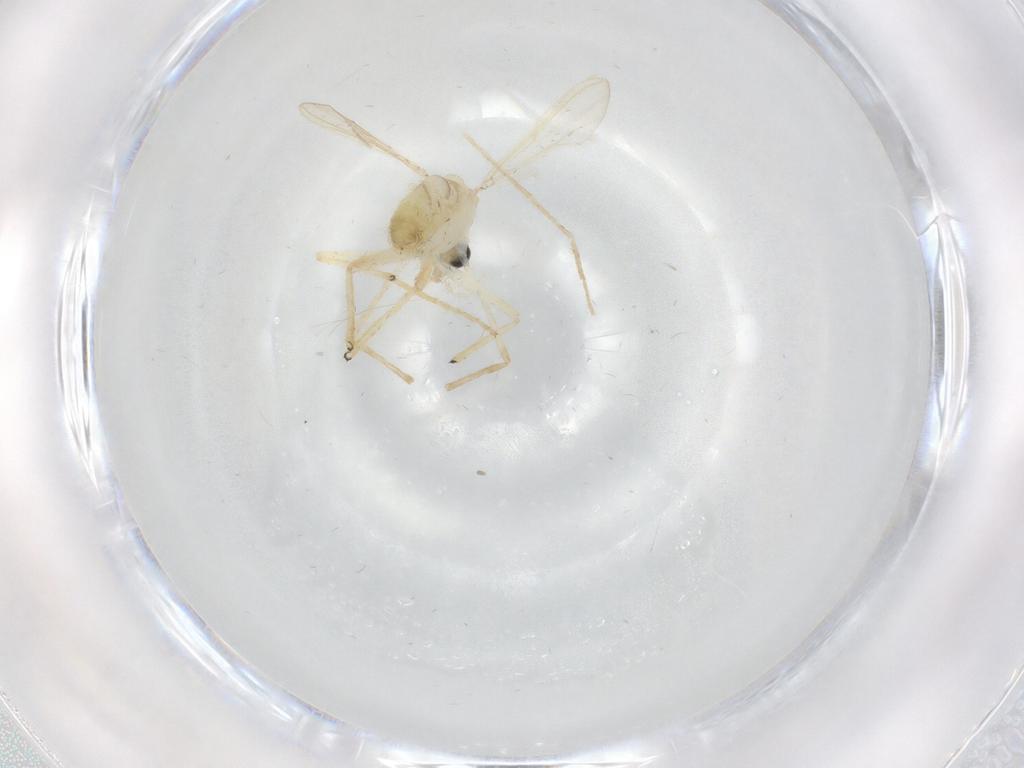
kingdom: Animalia
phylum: Arthropoda
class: Insecta
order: Diptera
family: Chironomidae
